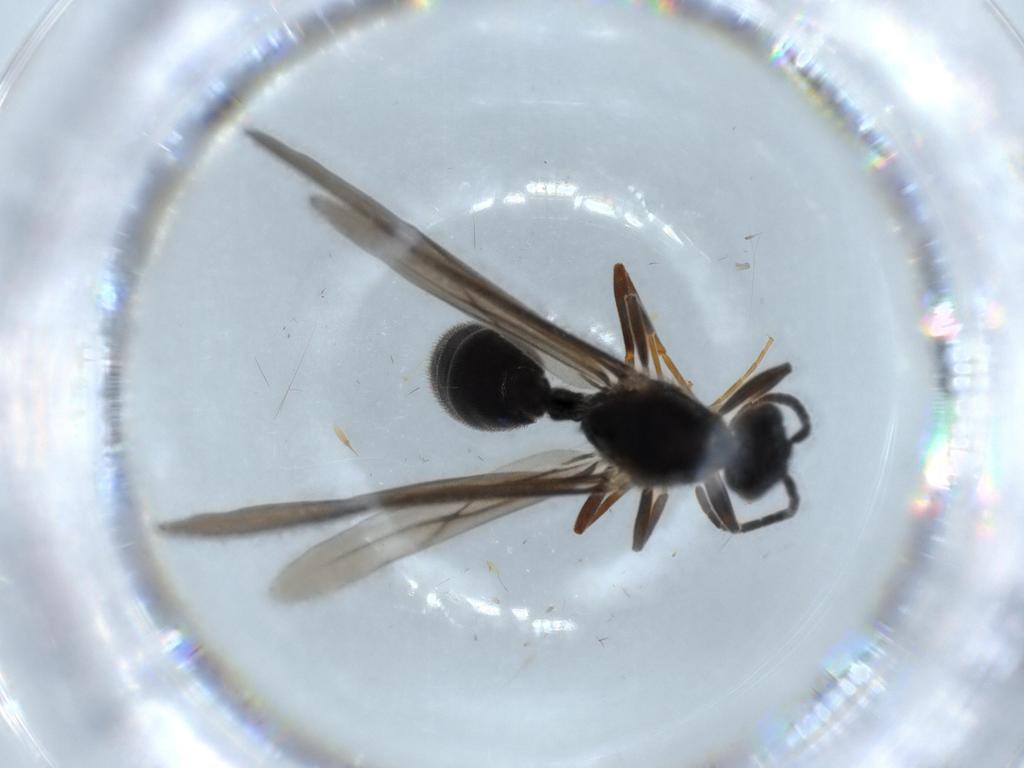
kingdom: Animalia
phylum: Arthropoda
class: Insecta
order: Hymenoptera
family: Formicidae
